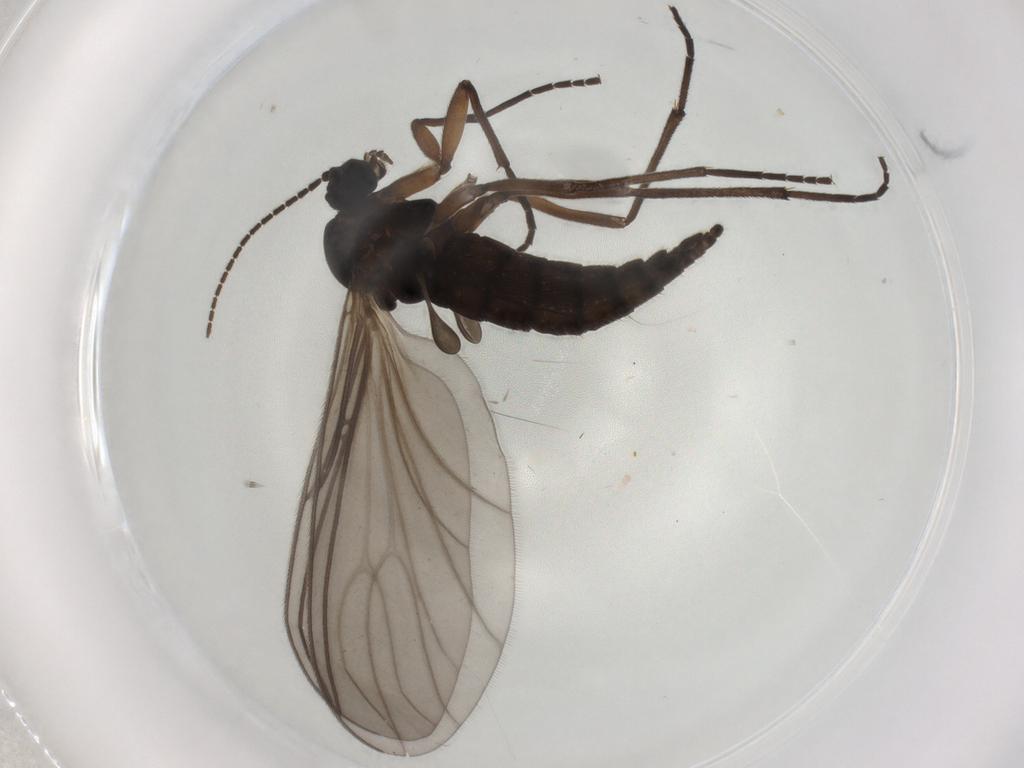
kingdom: Animalia
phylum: Arthropoda
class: Insecta
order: Diptera
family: Sciaridae
